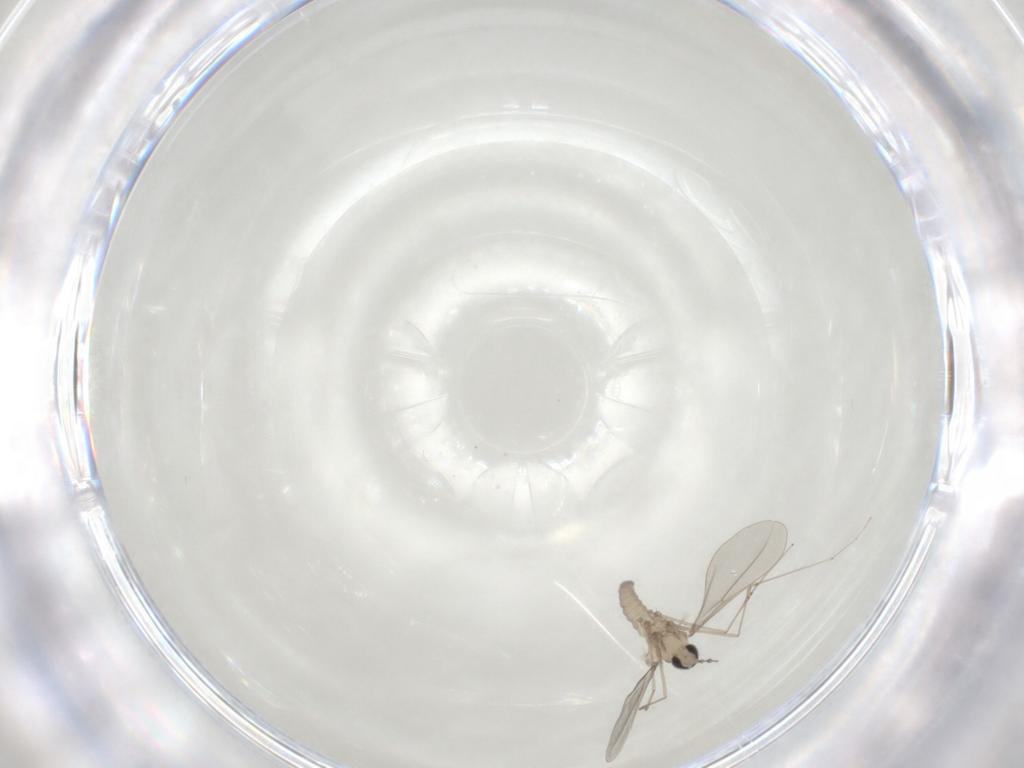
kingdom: Animalia
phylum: Arthropoda
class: Insecta
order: Diptera
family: Cecidomyiidae
